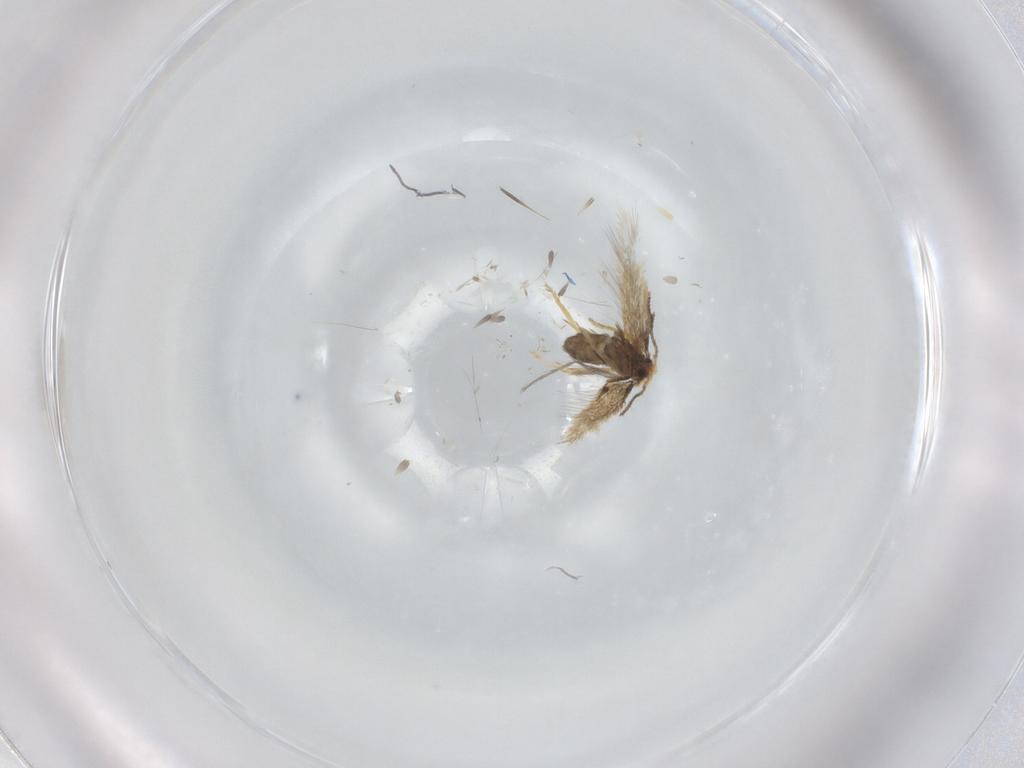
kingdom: Animalia
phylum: Arthropoda
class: Insecta
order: Lepidoptera
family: Nepticulidae
